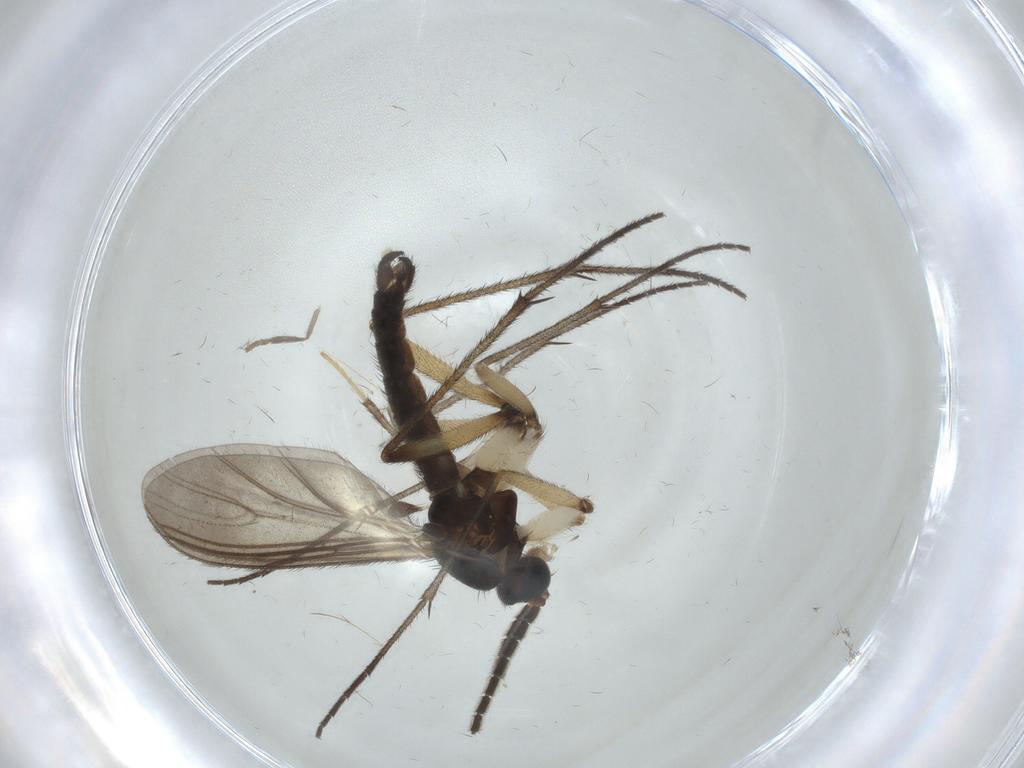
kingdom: Animalia
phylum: Arthropoda
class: Insecta
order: Diptera
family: Sciaridae
